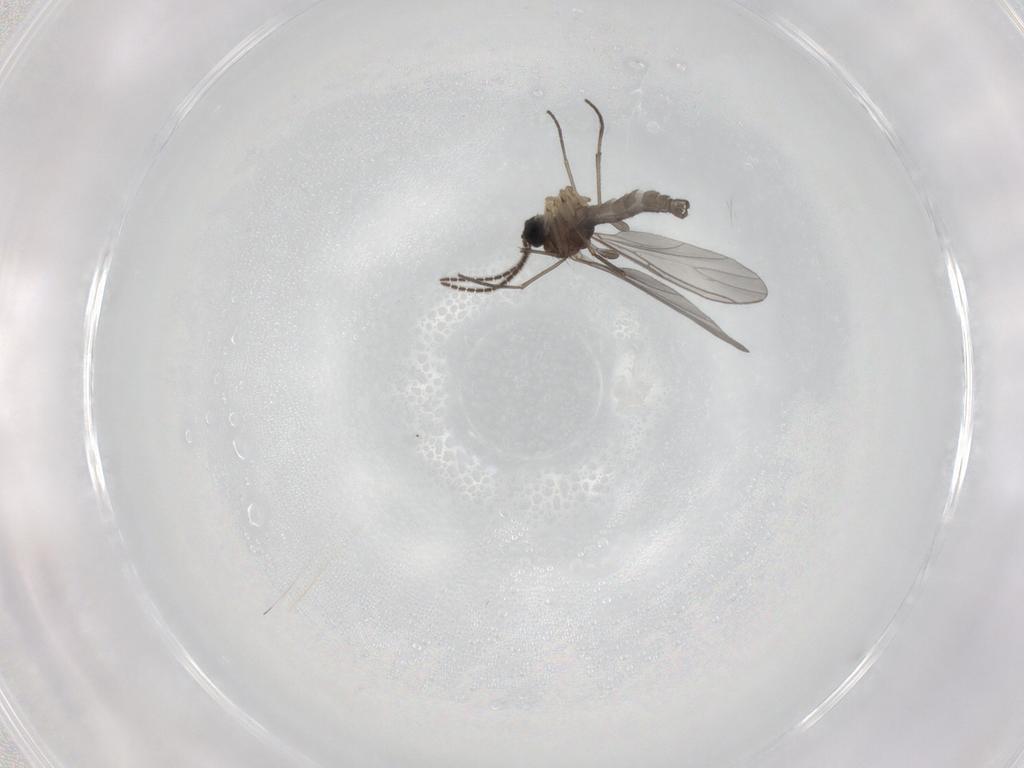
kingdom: Animalia
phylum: Arthropoda
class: Insecta
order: Diptera
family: Sciaridae
